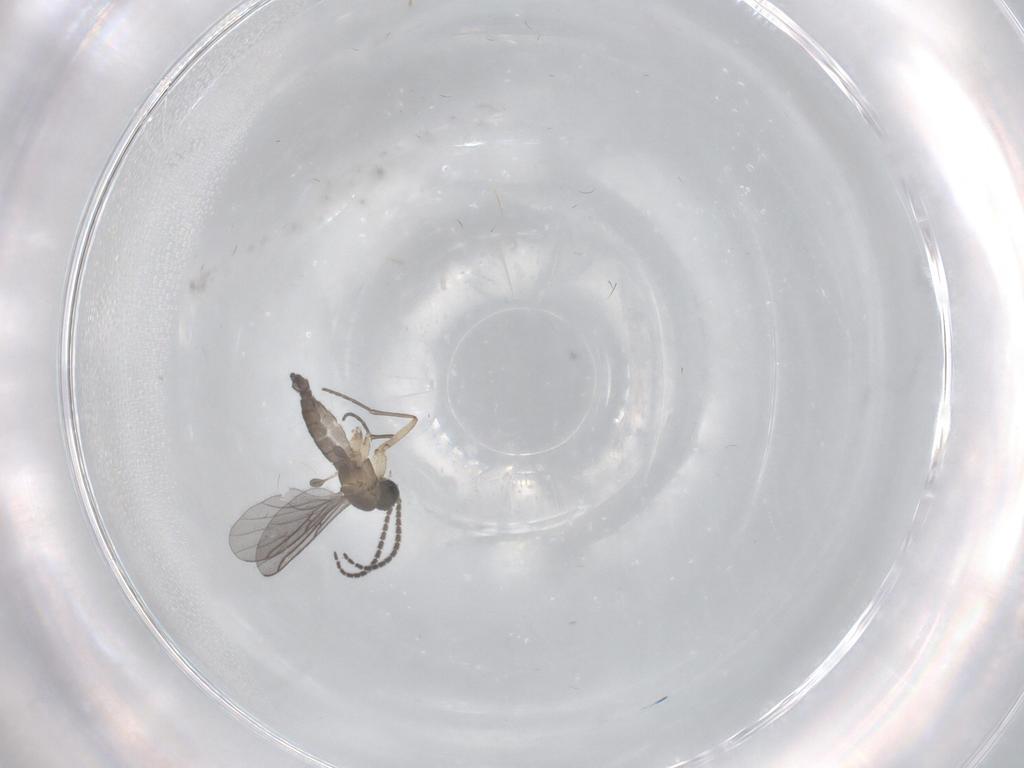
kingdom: Animalia
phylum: Arthropoda
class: Insecta
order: Diptera
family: Sciaridae
